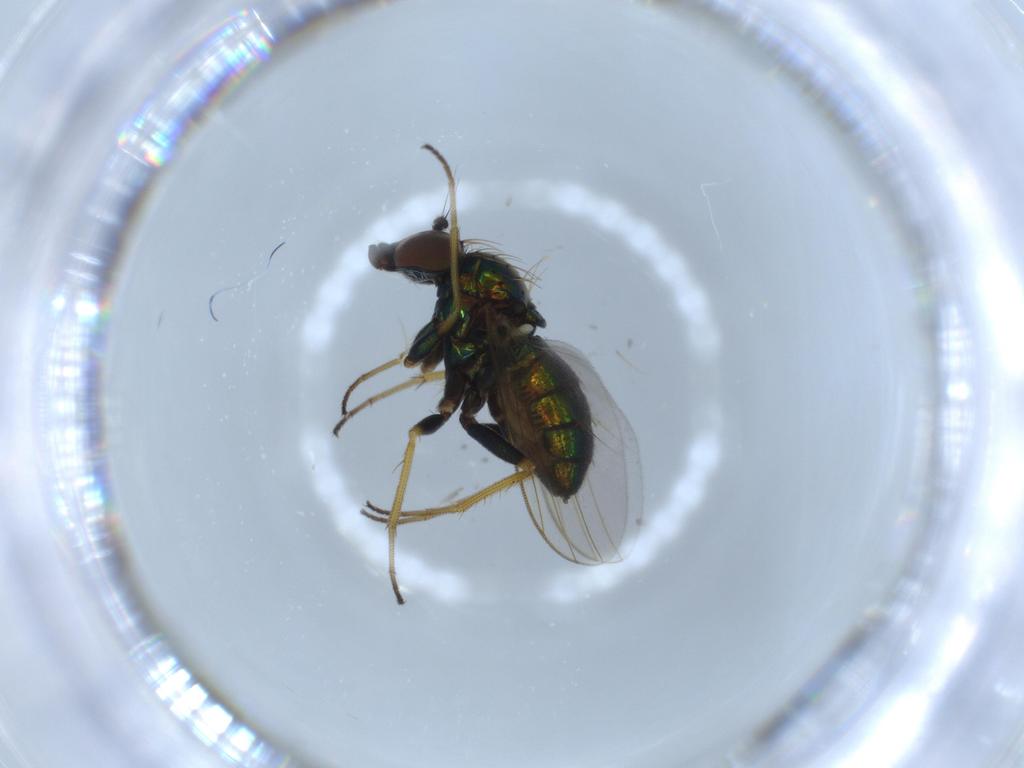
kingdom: Animalia
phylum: Arthropoda
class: Insecta
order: Diptera
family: Dolichopodidae
